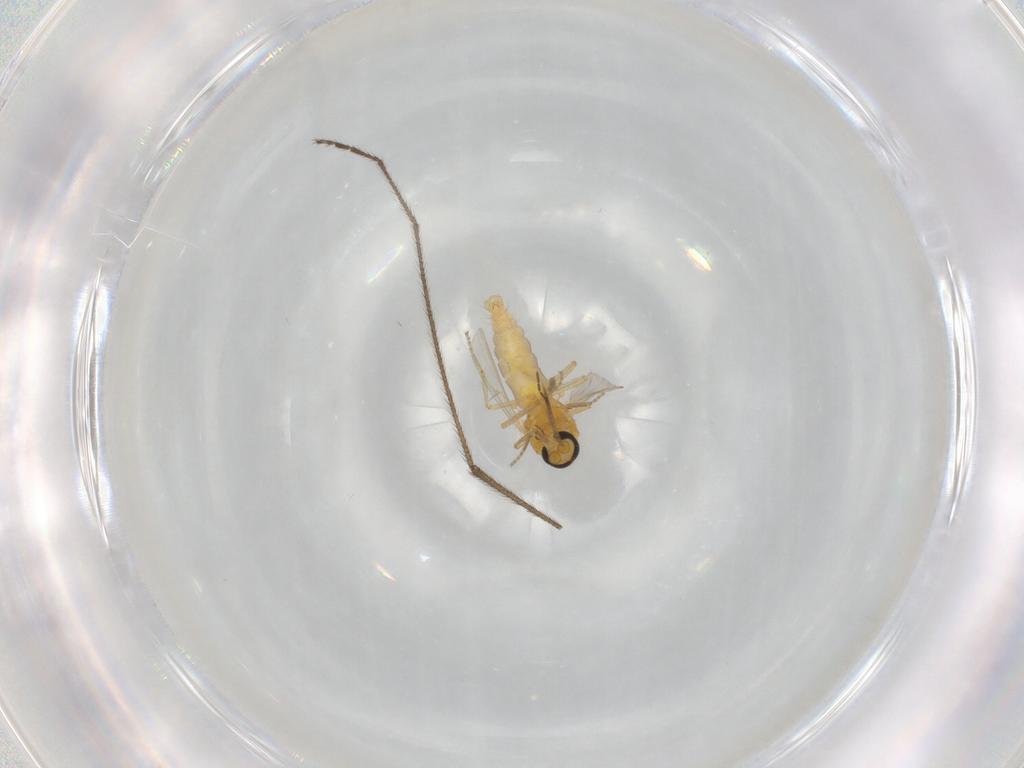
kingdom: Animalia
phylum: Arthropoda
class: Insecta
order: Diptera
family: Ceratopogonidae
